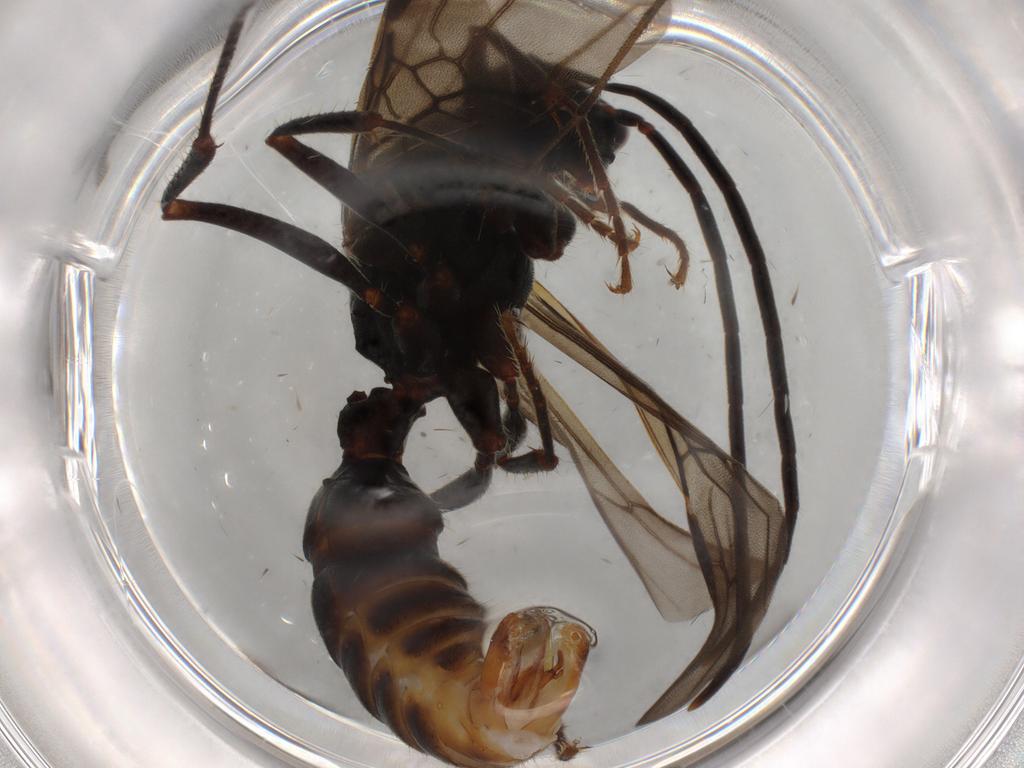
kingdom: Animalia
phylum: Arthropoda
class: Insecta
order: Hymenoptera
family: Formicidae
